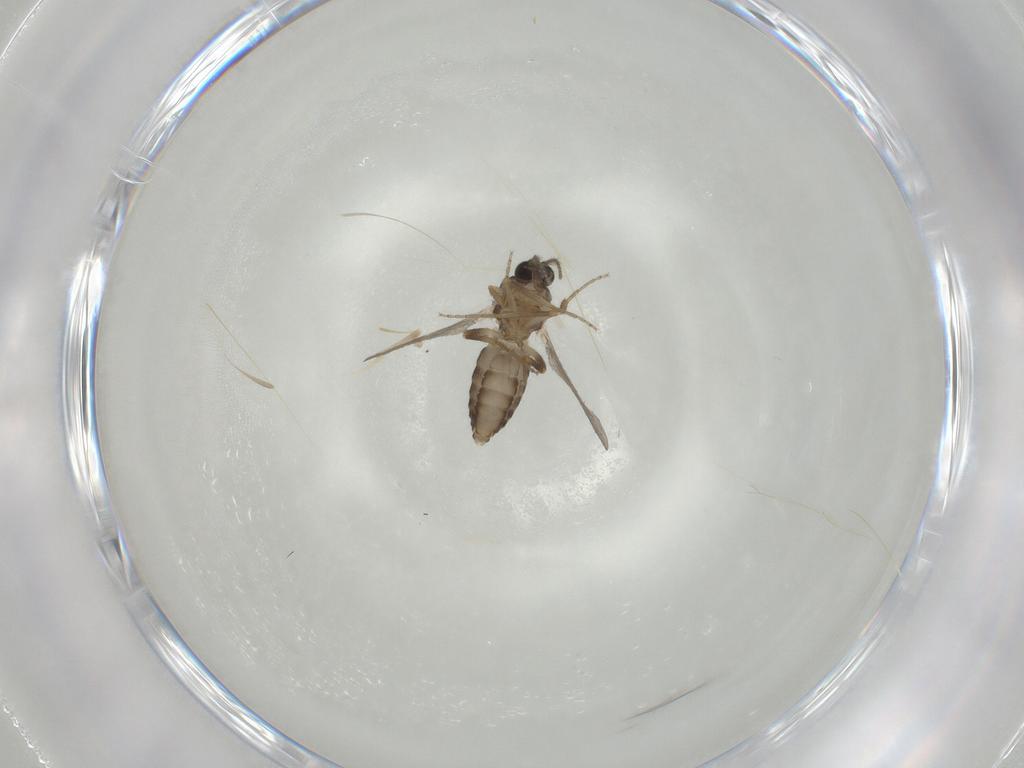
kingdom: Animalia
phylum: Arthropoda
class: Insecta
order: Diptera
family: Ceratopogonidae
